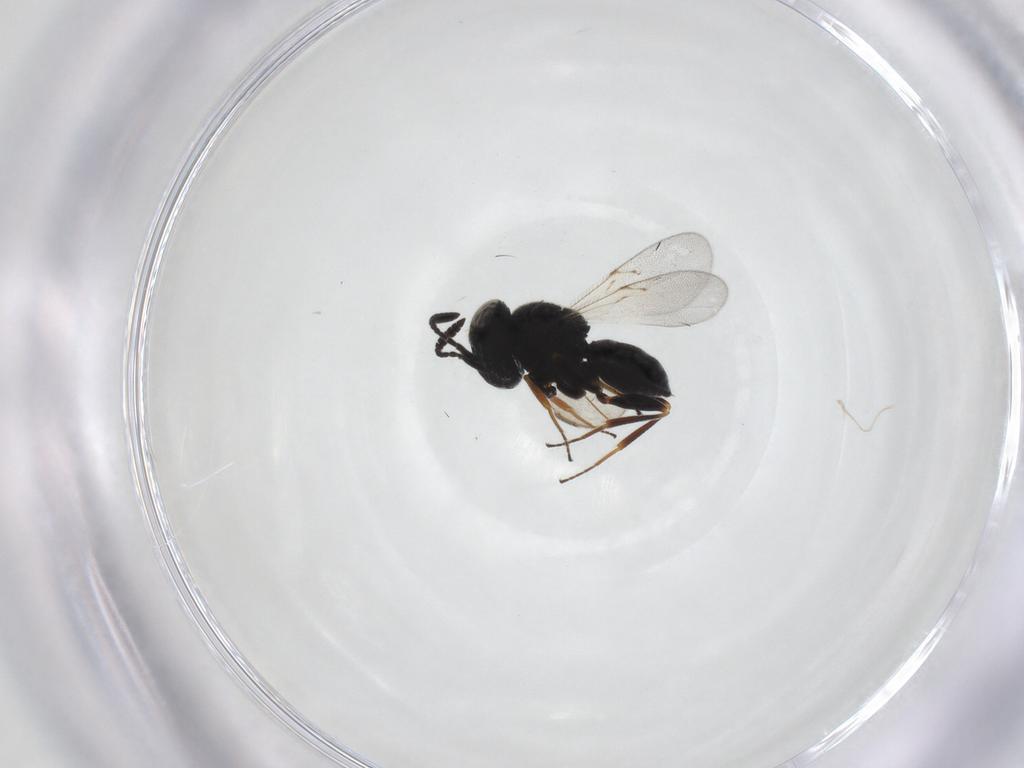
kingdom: Animalia
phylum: Arthropoda
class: Insecta
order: Hymenoptera
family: Scelionidae
